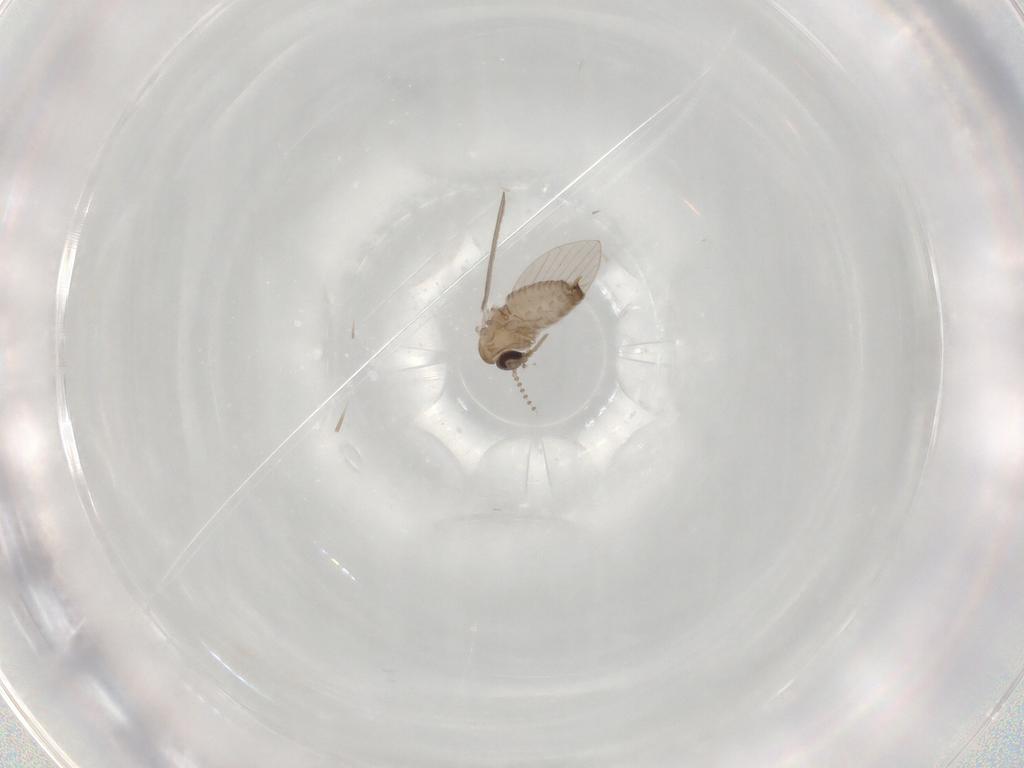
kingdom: Animalia
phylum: Arthropoda
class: Insecta
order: Diptera
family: Psychodidae
